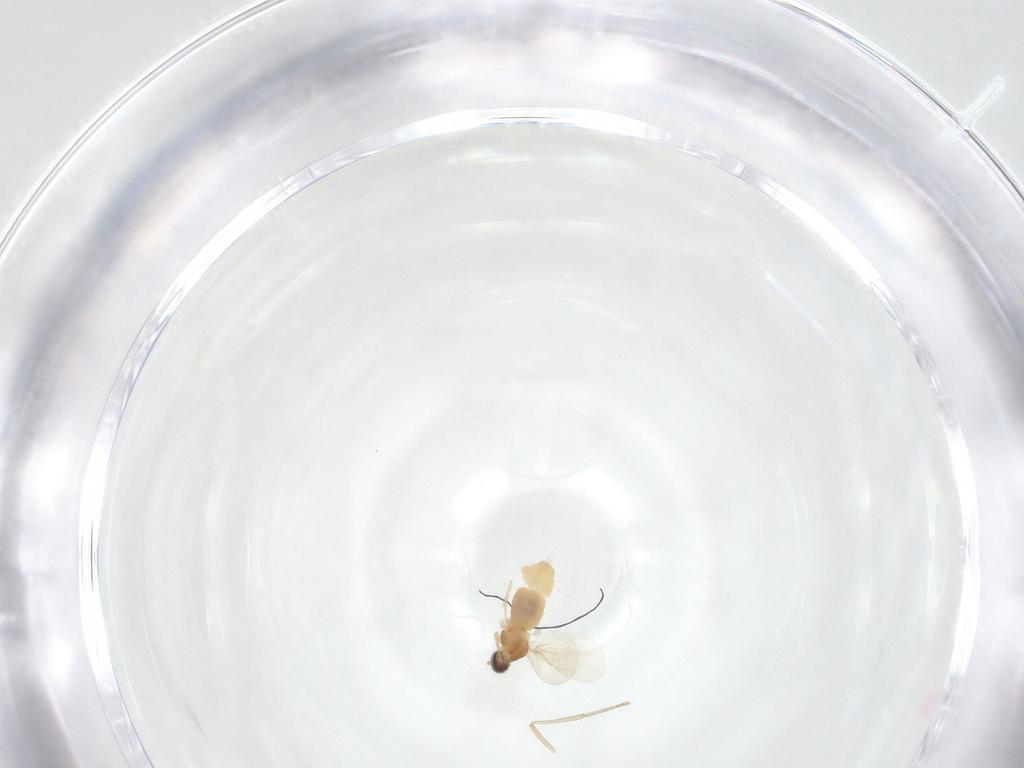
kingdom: Animalia
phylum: Arthropoda
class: Insecta
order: Diptera
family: Cecidomyiidae
